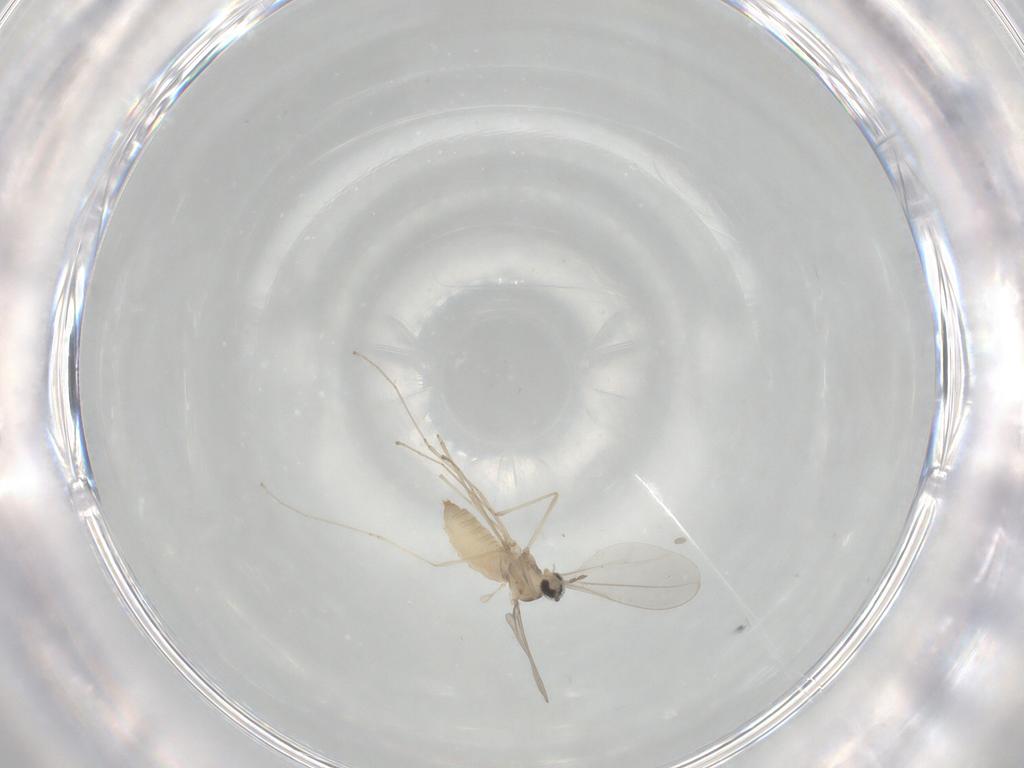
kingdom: Animalia
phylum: Arthropoda
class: Insecta
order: Diptera
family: Cecidomyiidae
